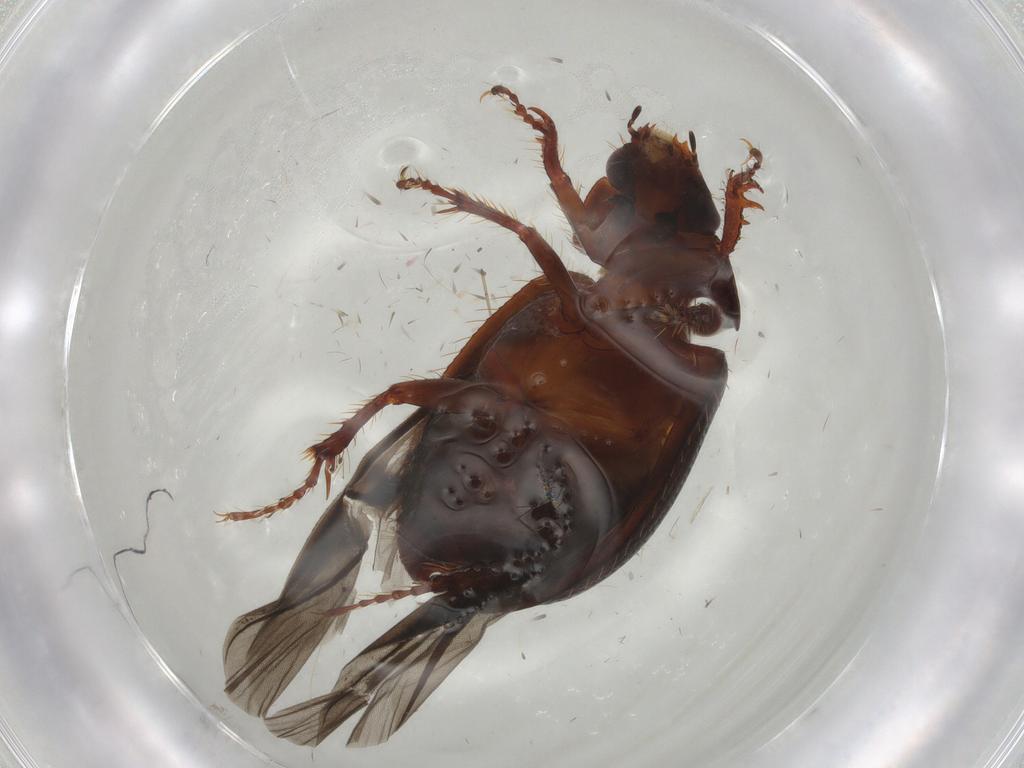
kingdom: Animalia
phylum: Arthropoda
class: Insecta
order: Coleoptera
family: Hybosoridae
